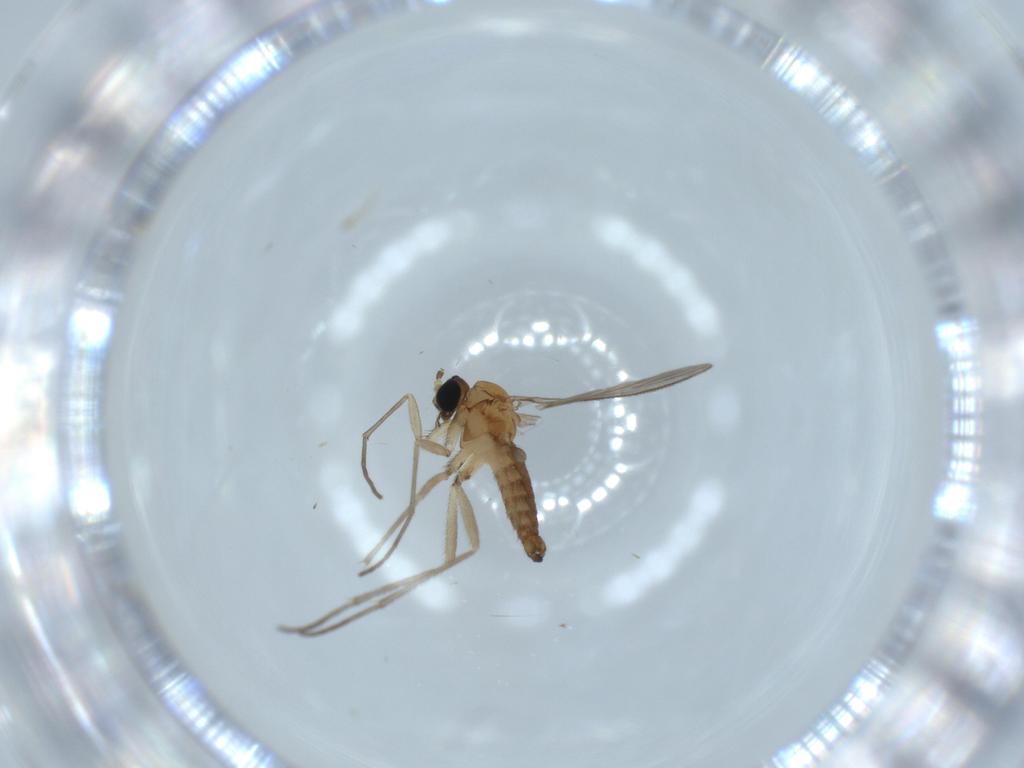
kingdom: Animalia
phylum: Arthropoda
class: Insecta
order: Diptera
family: Sciaridae
